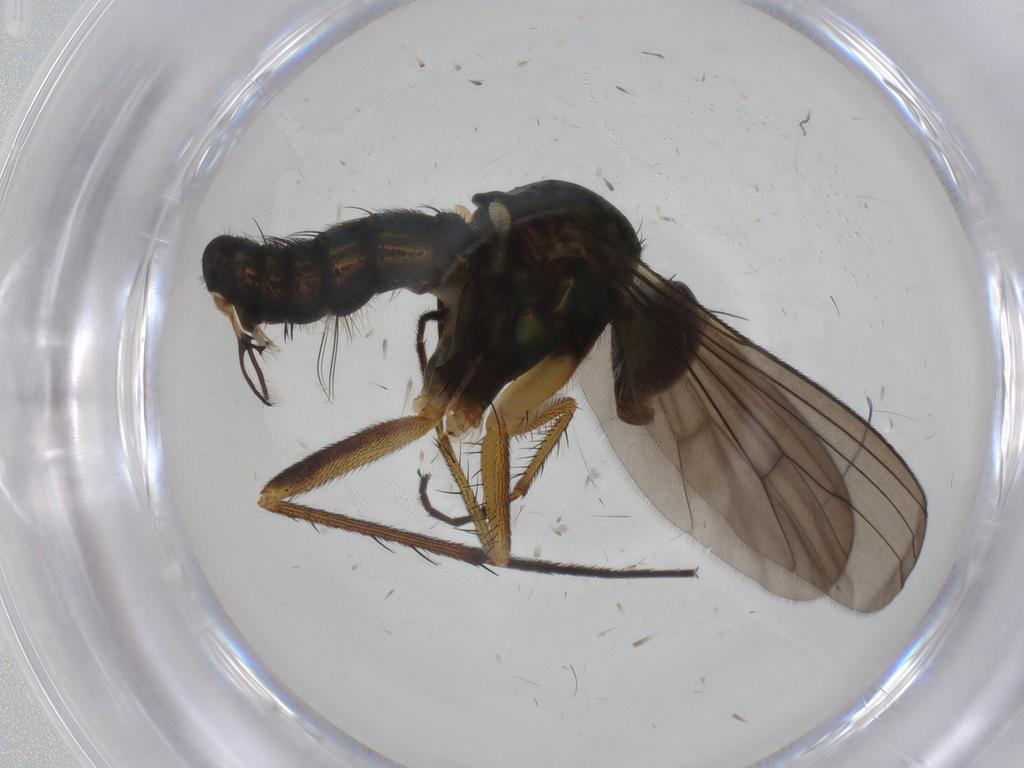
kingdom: Animalia
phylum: Arthropoda
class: Insecta
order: Diptera
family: Dolichopodidae
